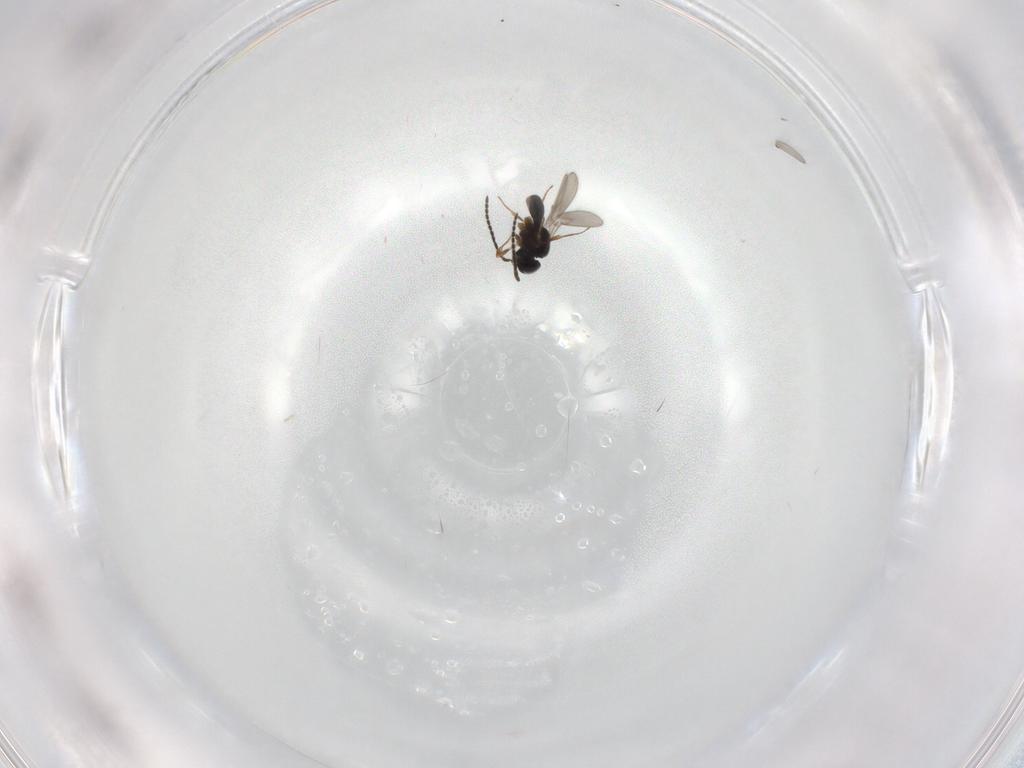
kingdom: Animalia
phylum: Arthropoda
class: Insecta
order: Hymenoptera
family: Scelionidae
